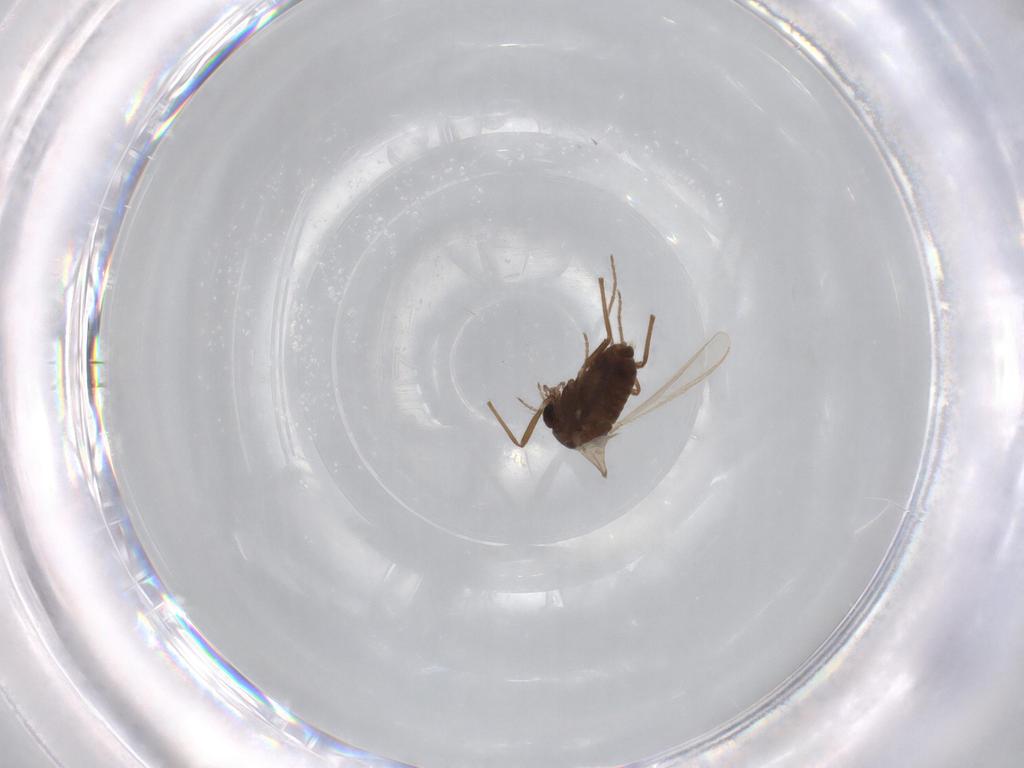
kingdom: Animalia
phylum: Arthropoda
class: Insecta
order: Diptera
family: Chironomidae
